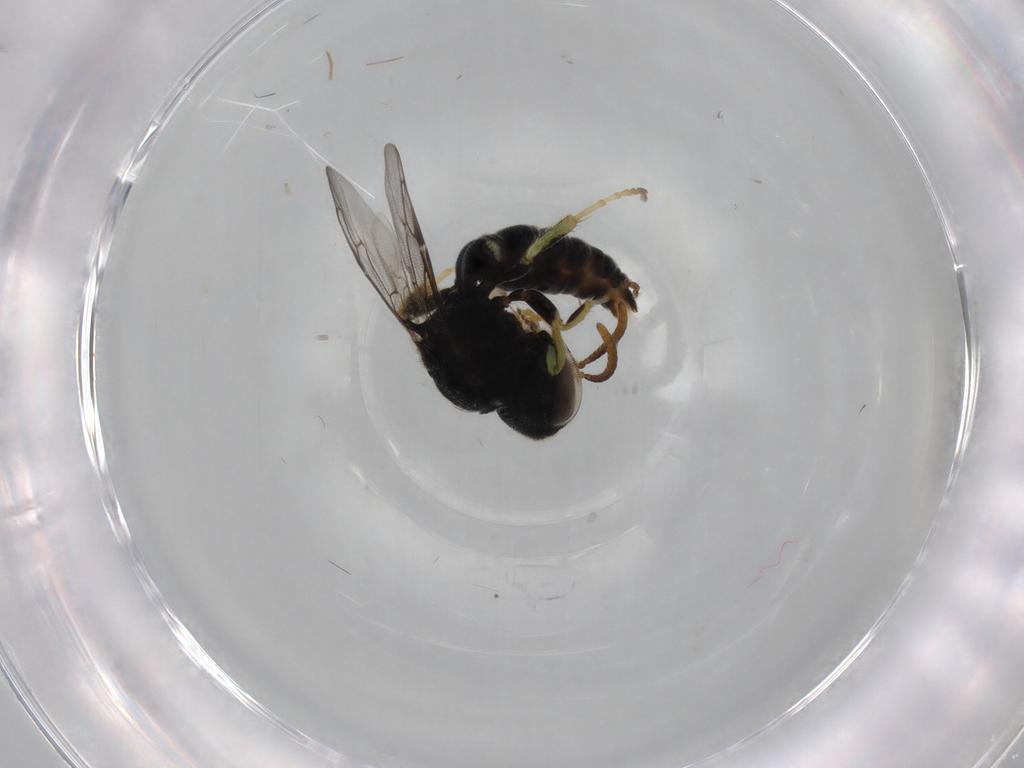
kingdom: Animalia
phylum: Arthropoda
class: Insecta
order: Hymenoptera
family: Crabronidae
